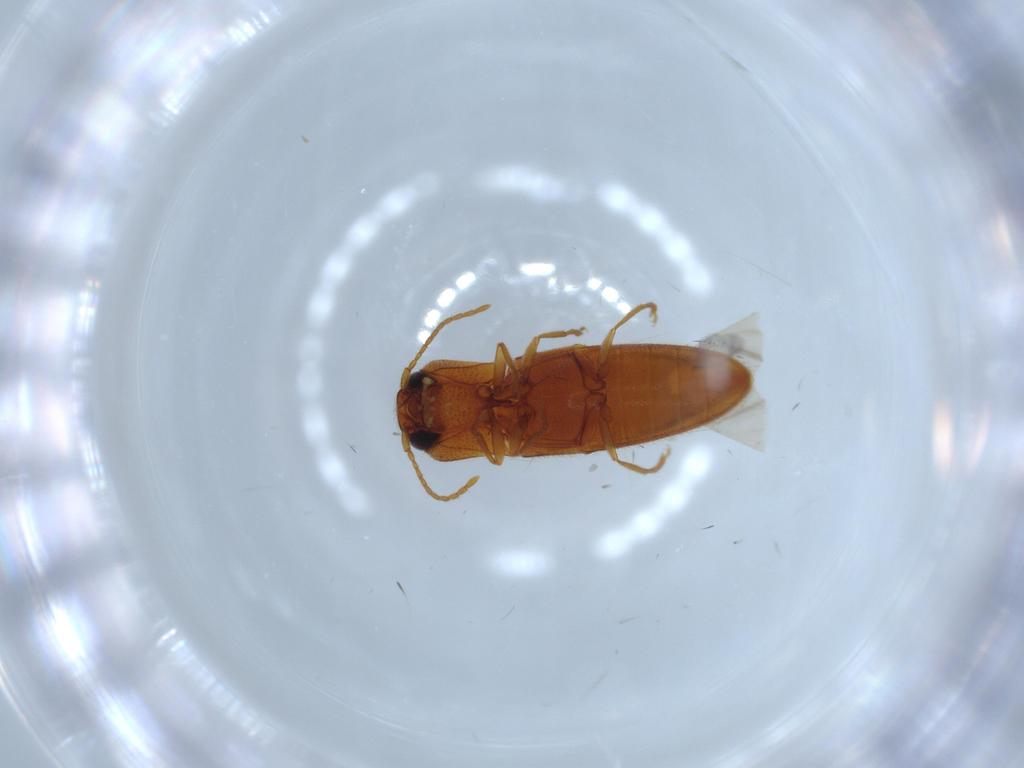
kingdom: Animalia
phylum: Arthropoda
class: Insecta
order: Coleoptera
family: Elateridae
